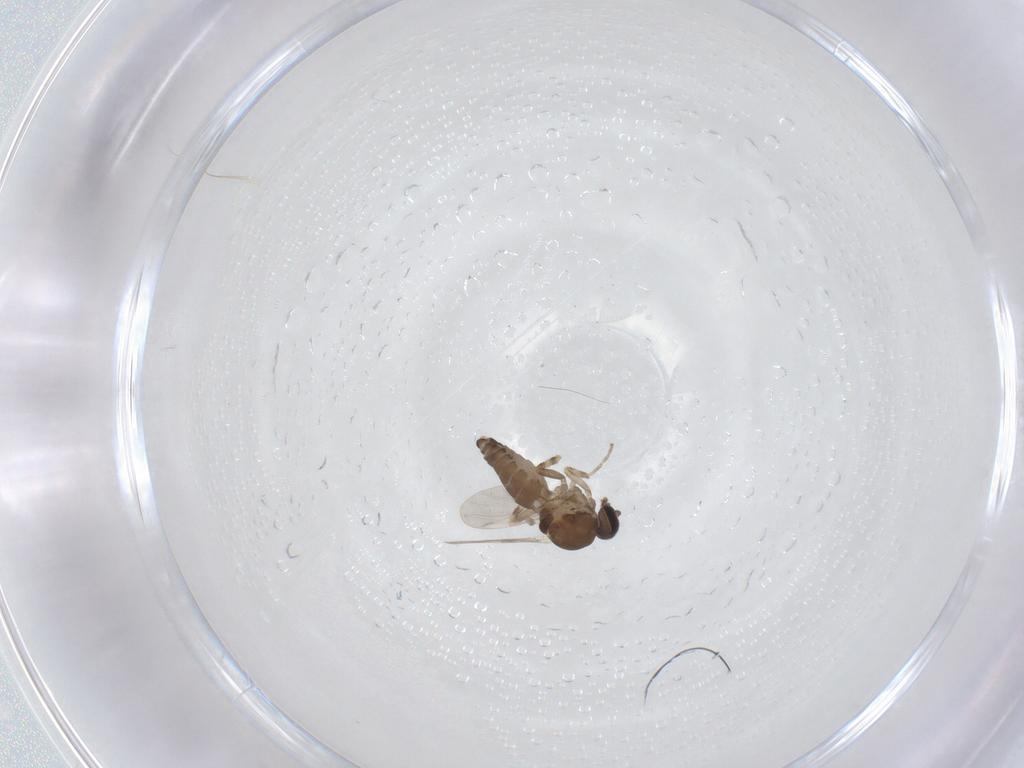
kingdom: Animalia
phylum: Arthropoda
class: Insecta
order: Diptera
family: Ceratopogonidae
